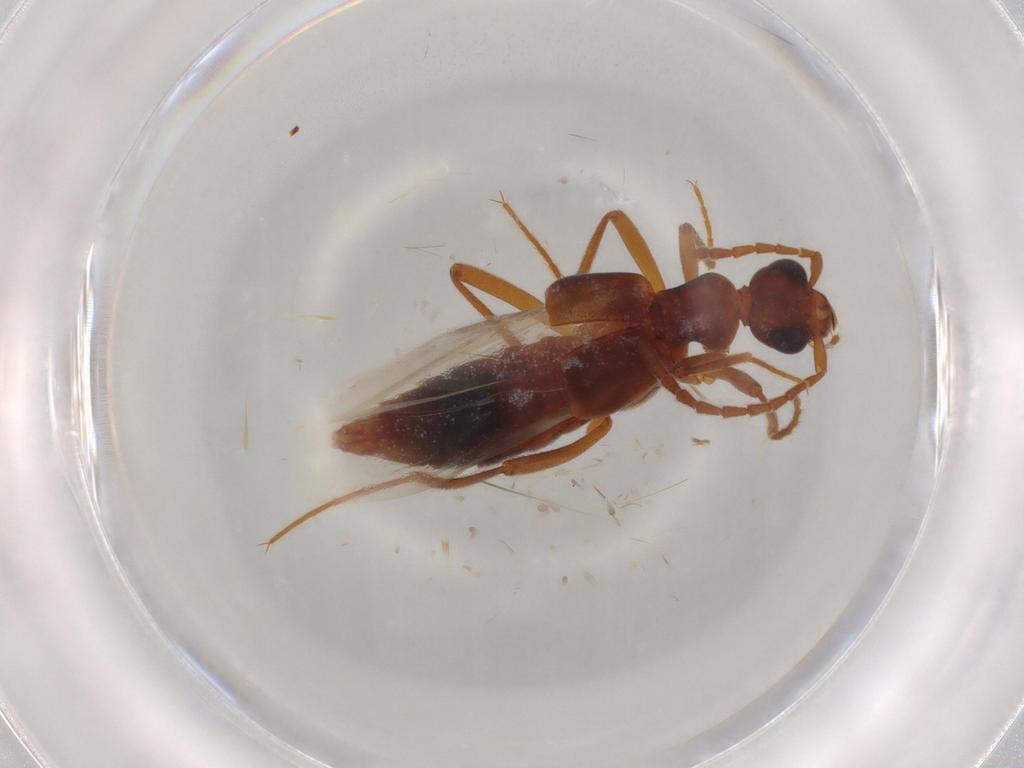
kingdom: Animalia
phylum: Arthropoda
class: Insecta
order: Coleoptera
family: Staphylinidae
